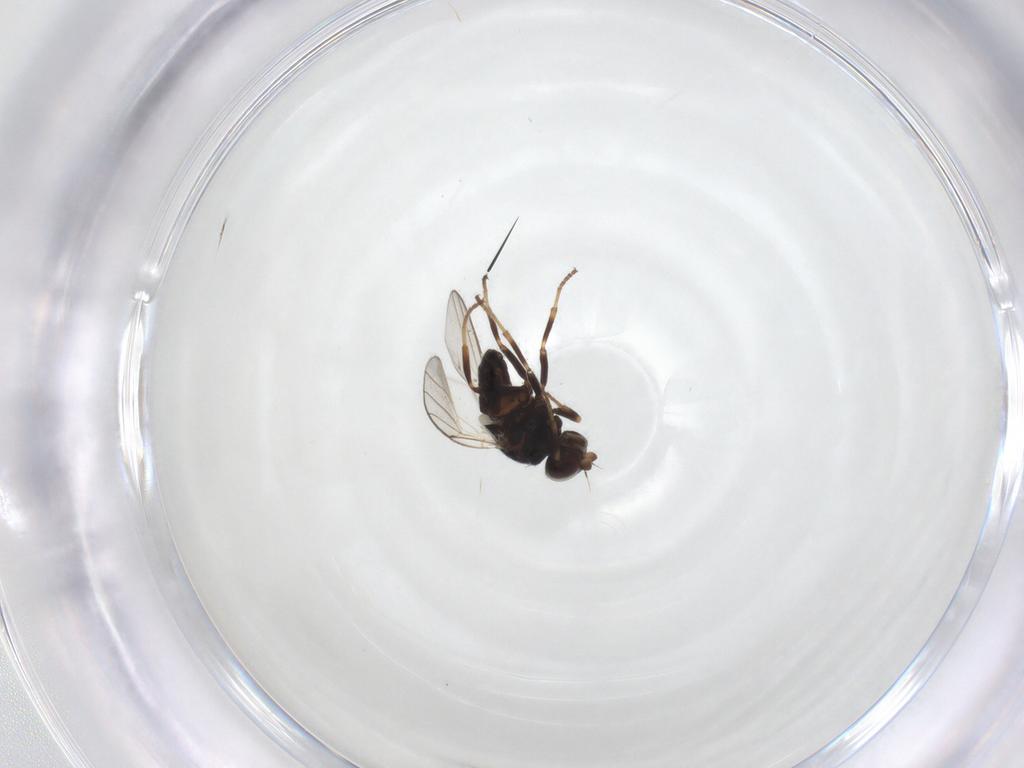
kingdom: Animalia
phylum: Arthropoda
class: Insecta
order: Diptera
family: Chloropidae
